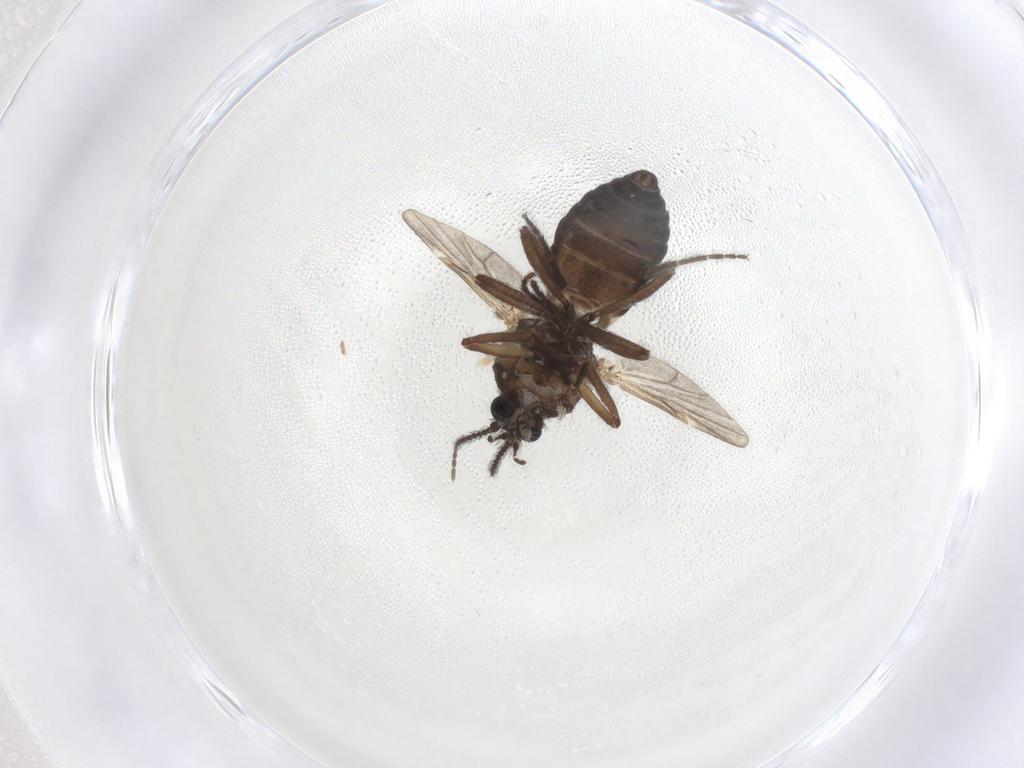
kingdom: Animalia
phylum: Arthropoda
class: Insecta
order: Diptera
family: Ceratopogonidae
